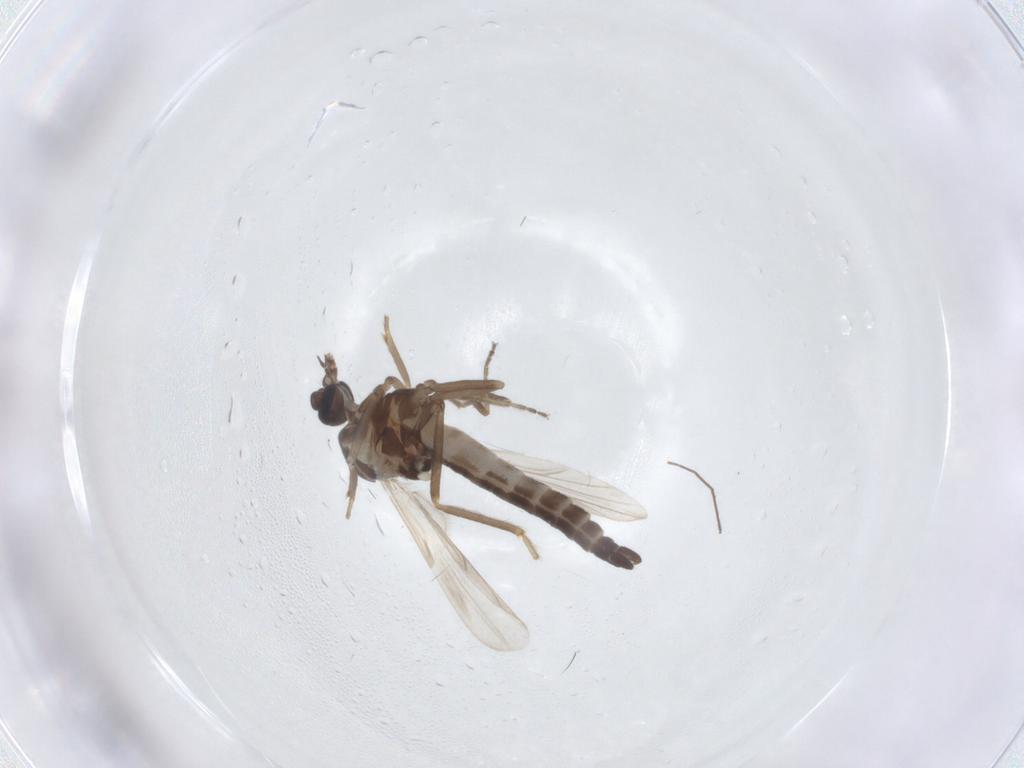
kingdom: Animalia
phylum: Arthropoda
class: Insecta
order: Diptera
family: Ceratopogonidae
